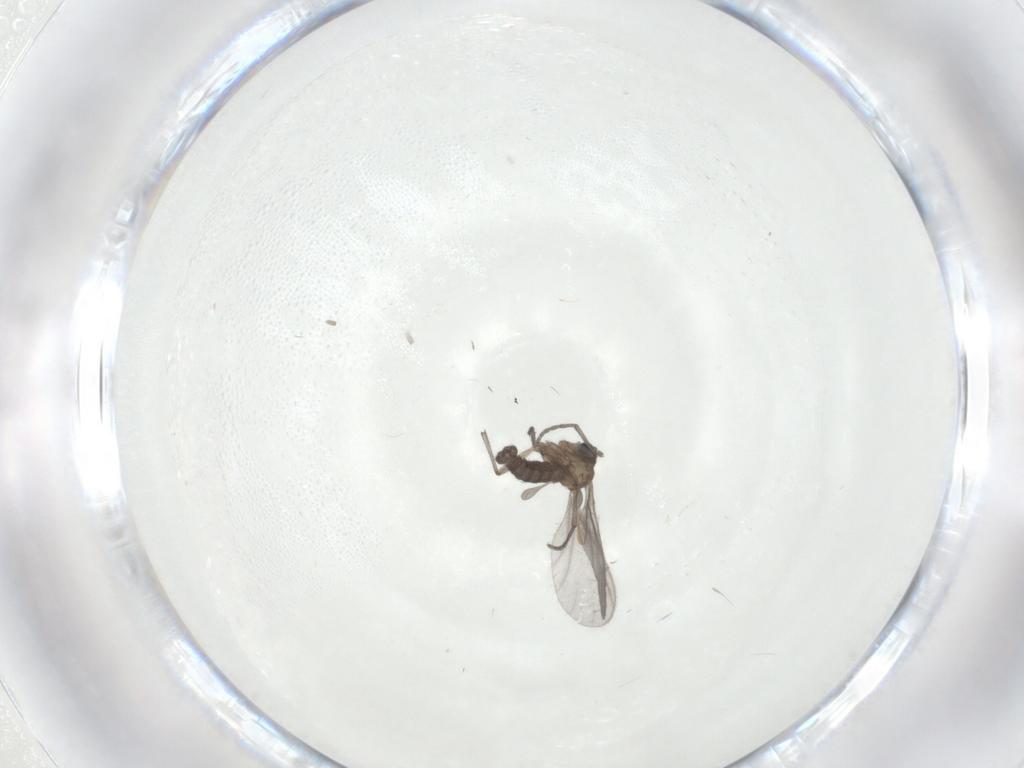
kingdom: Animalia
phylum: Arthropoda
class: Insecta
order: Diptera
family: Sciaridae
